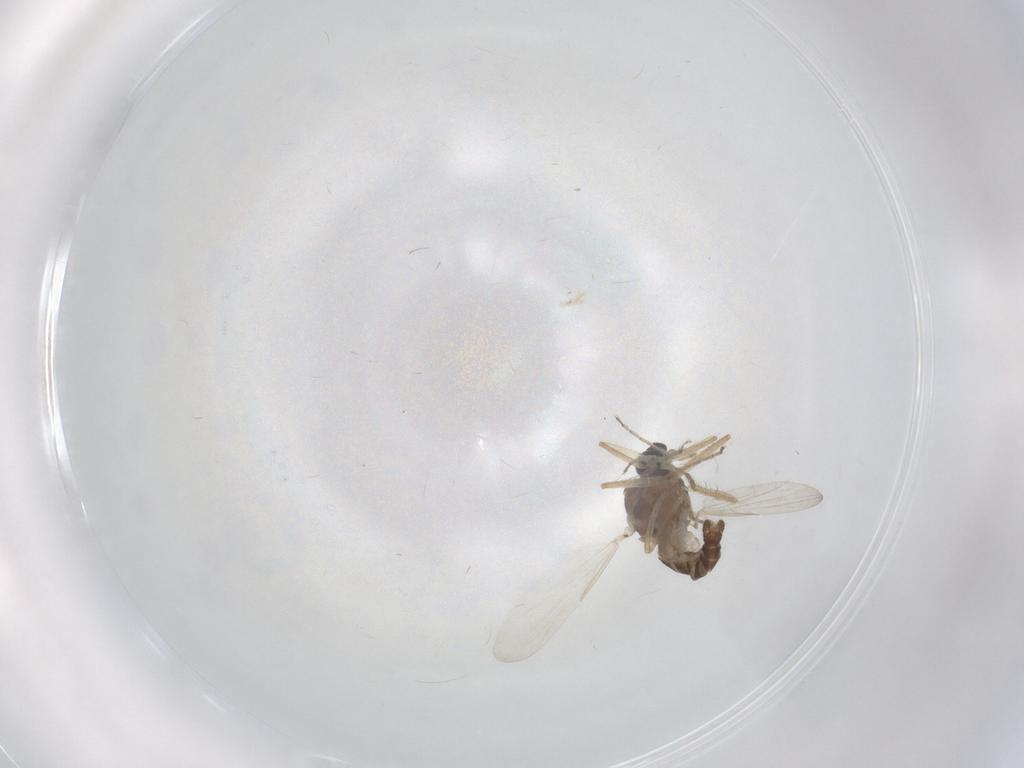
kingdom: Animalia
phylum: Arthropoda
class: Insecta
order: Diptera
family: Ceratopogonidae
